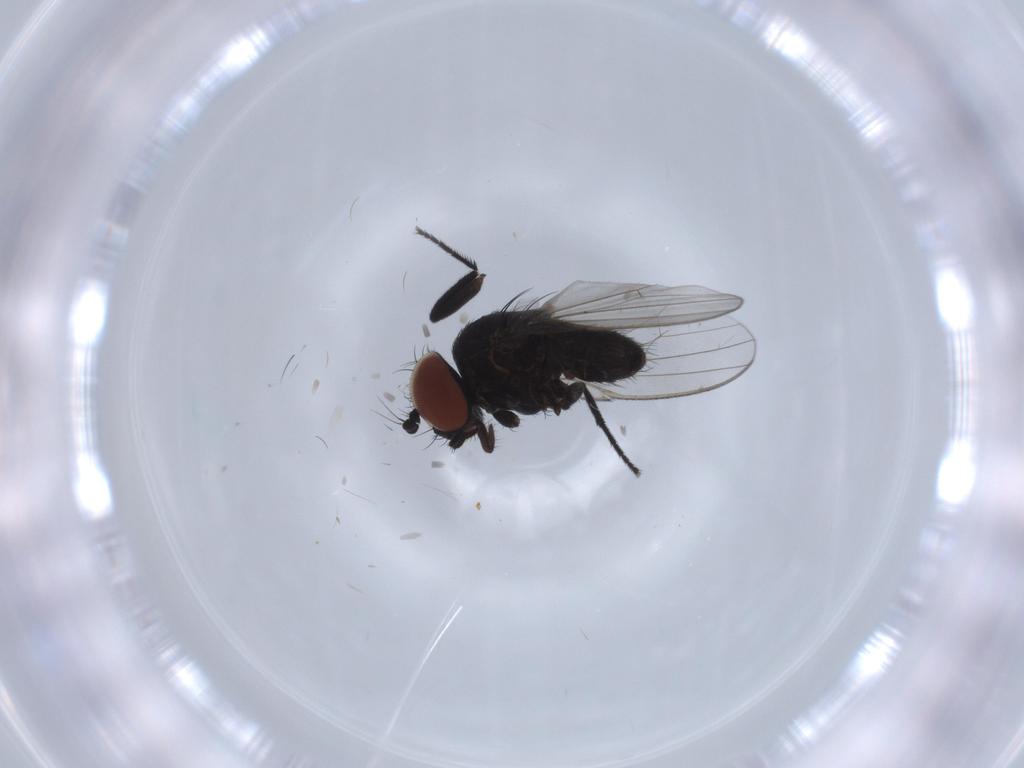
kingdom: Animalia
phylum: Arthropoda
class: Insecta
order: Diptera
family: Milichiidae
